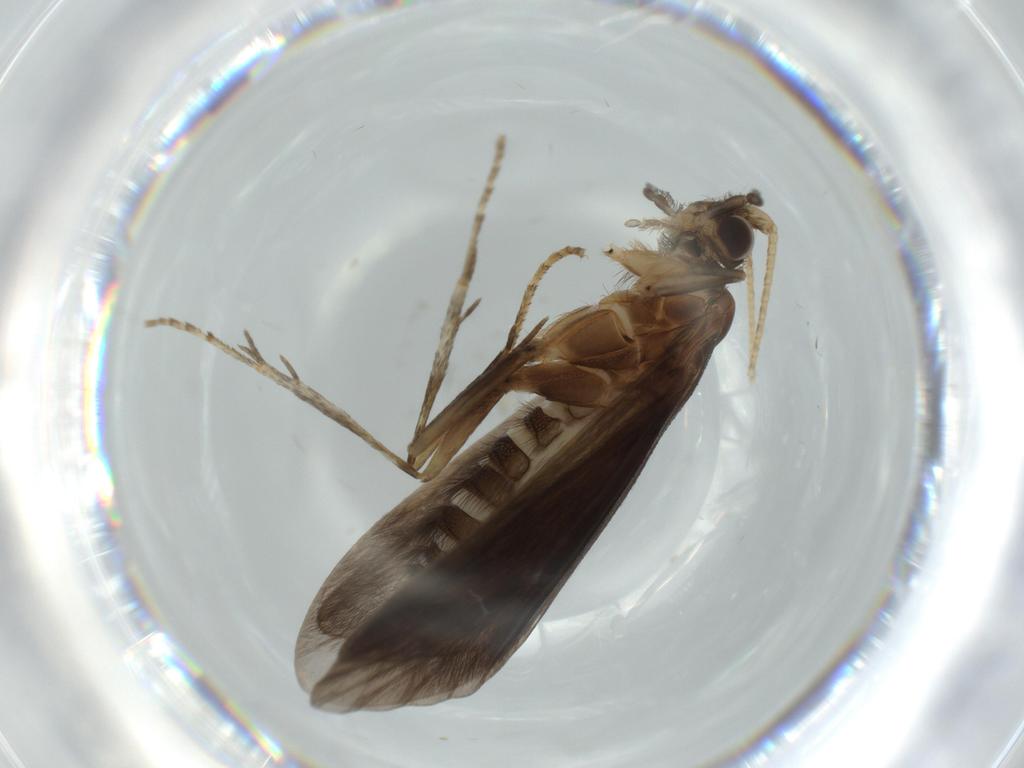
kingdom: Animalia
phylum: Arthropoda
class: Insecta
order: Trichoptera
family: Helicopsychidae
